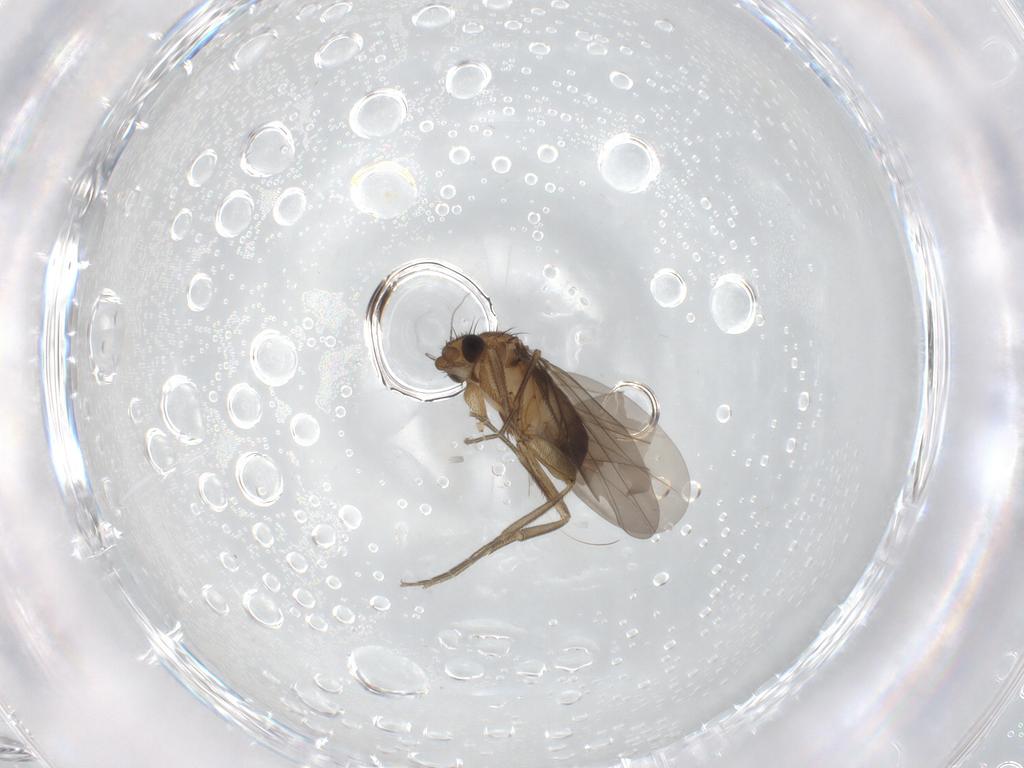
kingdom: Animalia
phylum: Arthropoda
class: Insecta
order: Diptera
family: Phoridae
